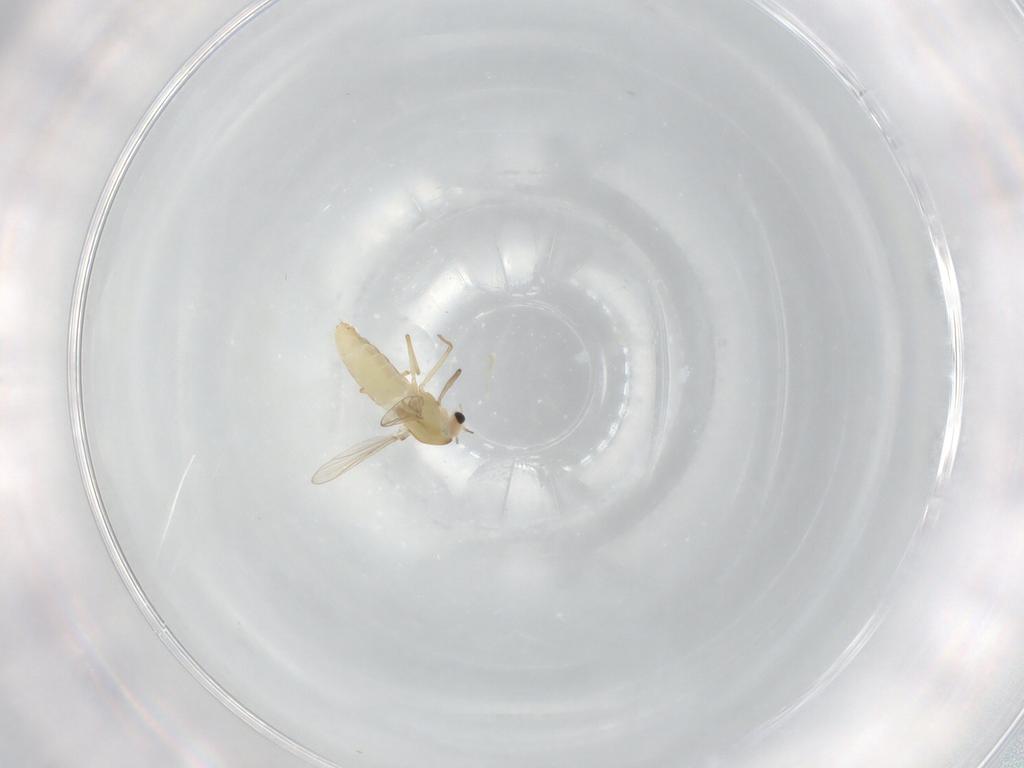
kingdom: Animalia
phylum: Arthropoda
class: Insecta
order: Diptera
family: Chironomidae
